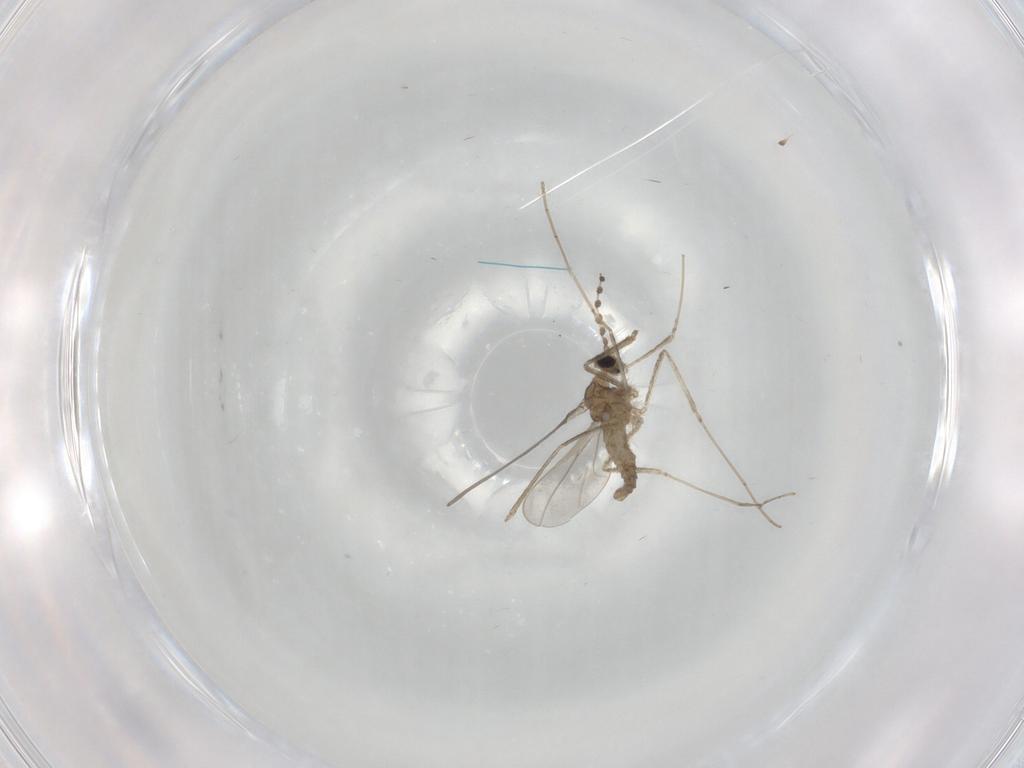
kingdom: Animalia
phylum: Arthropoda
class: Insecta
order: Diptera
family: Cecidomyiidae
